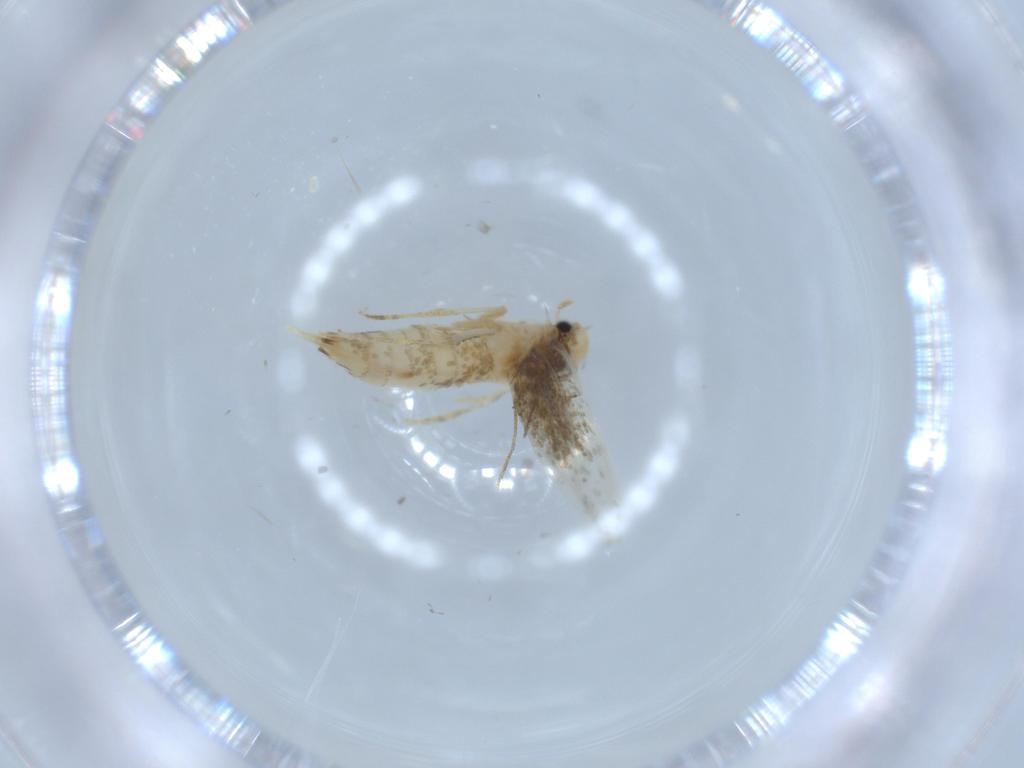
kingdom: Animalia
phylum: Arthropoda
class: Insecta
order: Lepidoptera
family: Tineidae
